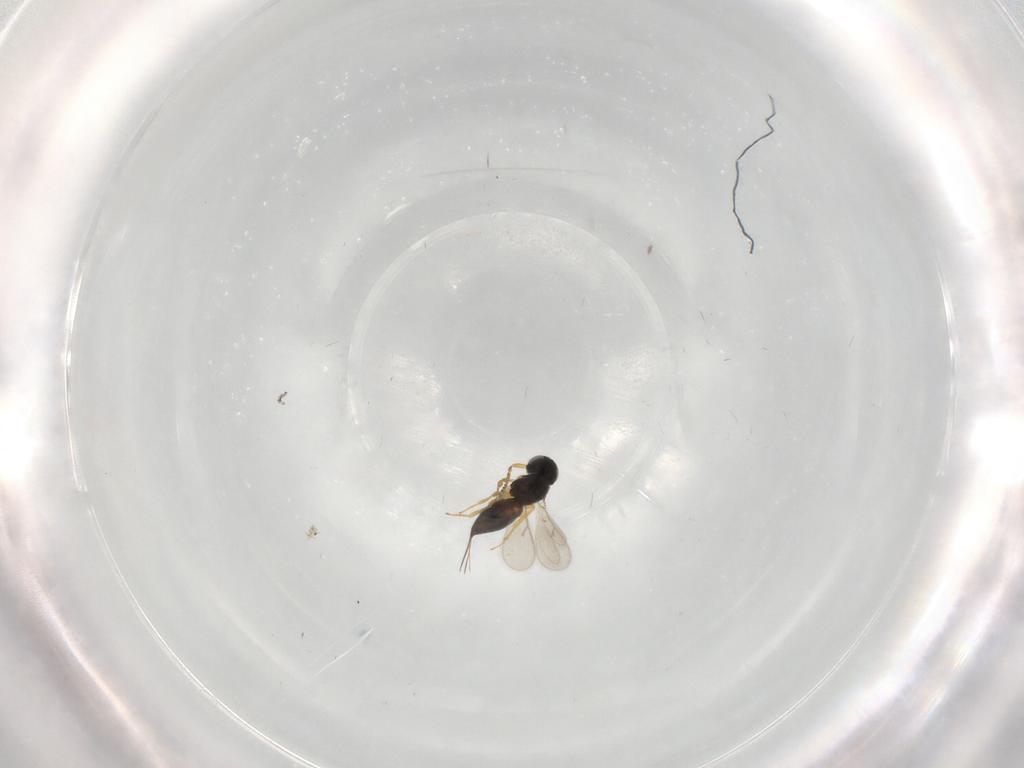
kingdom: Animalia
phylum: Arthropoda
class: Insecta
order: Hymenoptera
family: Scelionidae
